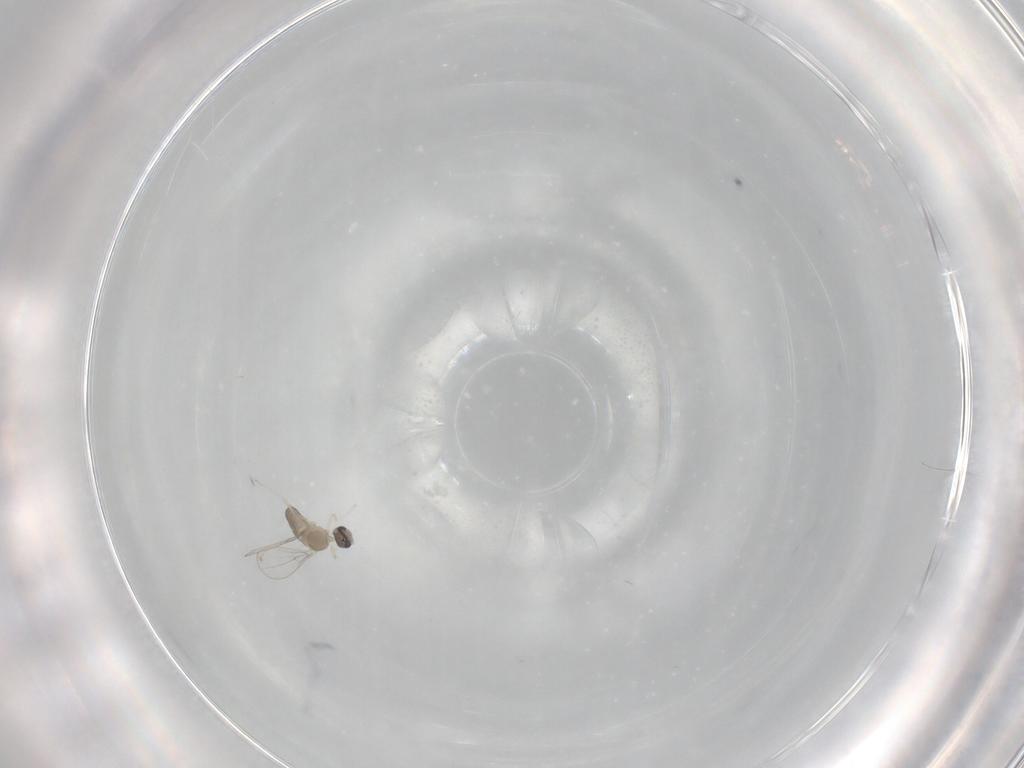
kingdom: Animalia
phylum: Arthropoda
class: Insecta
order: Diptera
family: Cecidomyiidae
